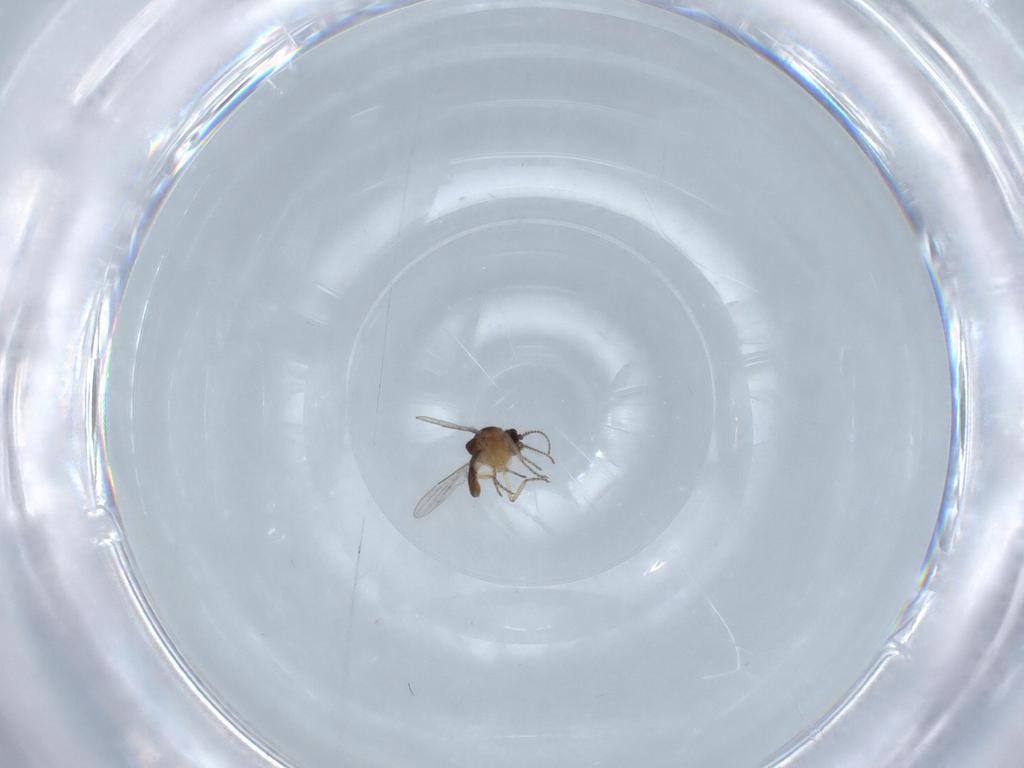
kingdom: Animalia
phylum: Arthropoda
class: Insecta
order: Diptera
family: Ceratopogonidae
